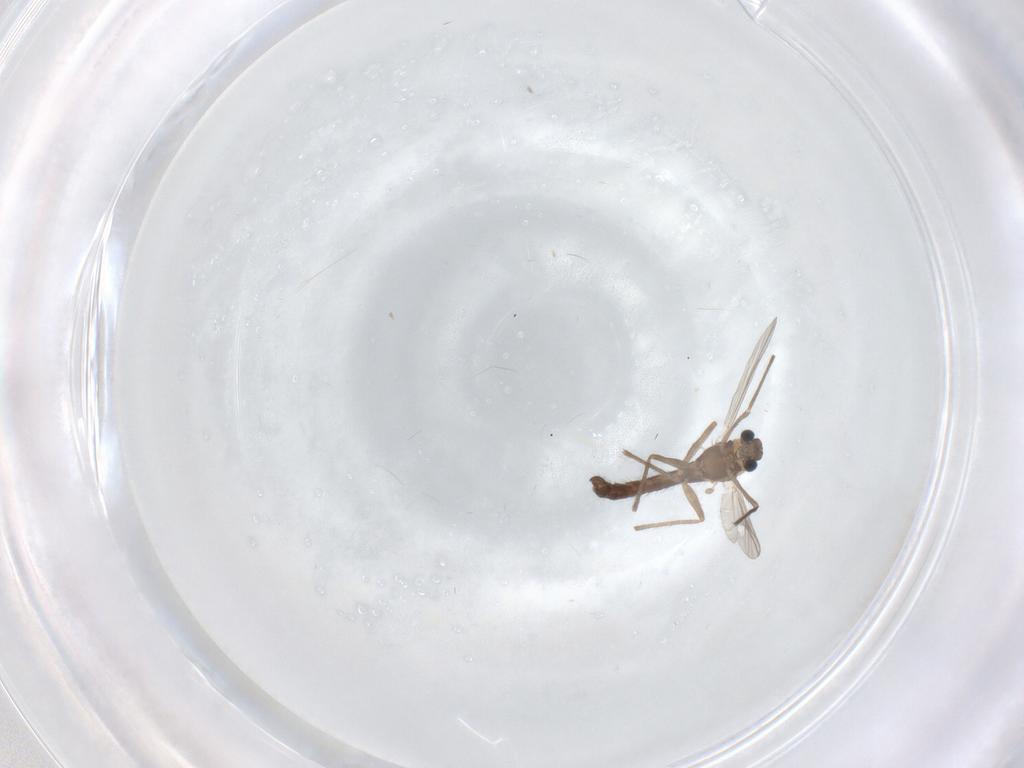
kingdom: Animalia
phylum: Arthropoda
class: Insecta
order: Diptera
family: Chironomidae
